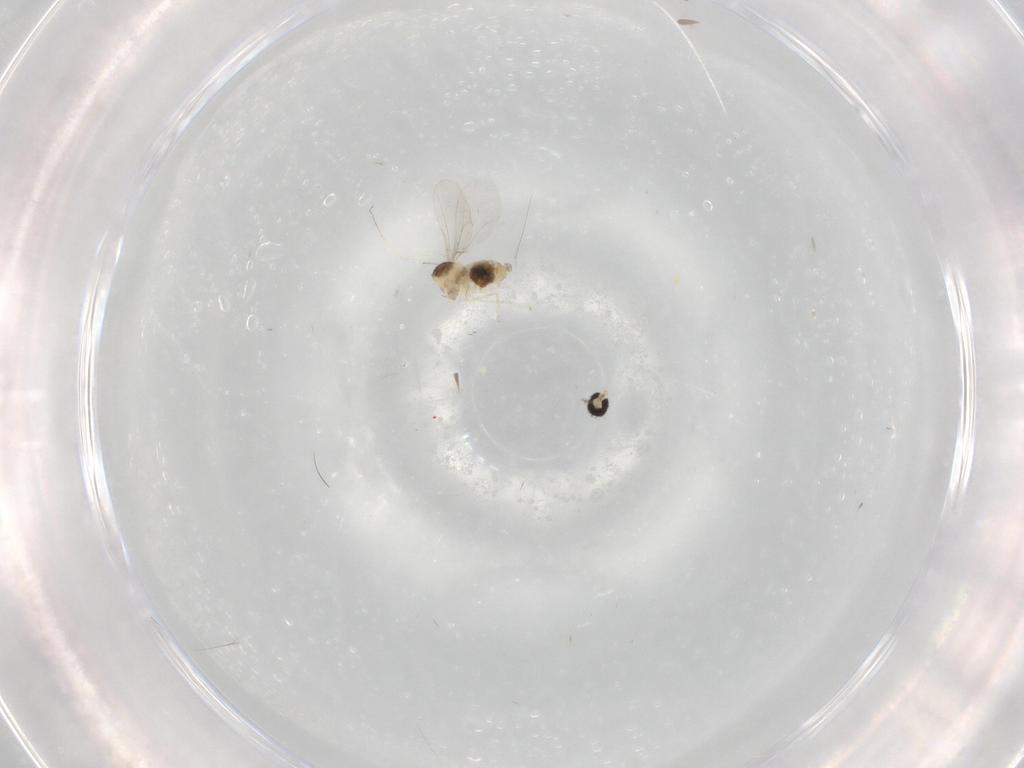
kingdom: Animalia
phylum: Arthropoda
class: Insecta
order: Diptera
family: Cecidomyiidae
